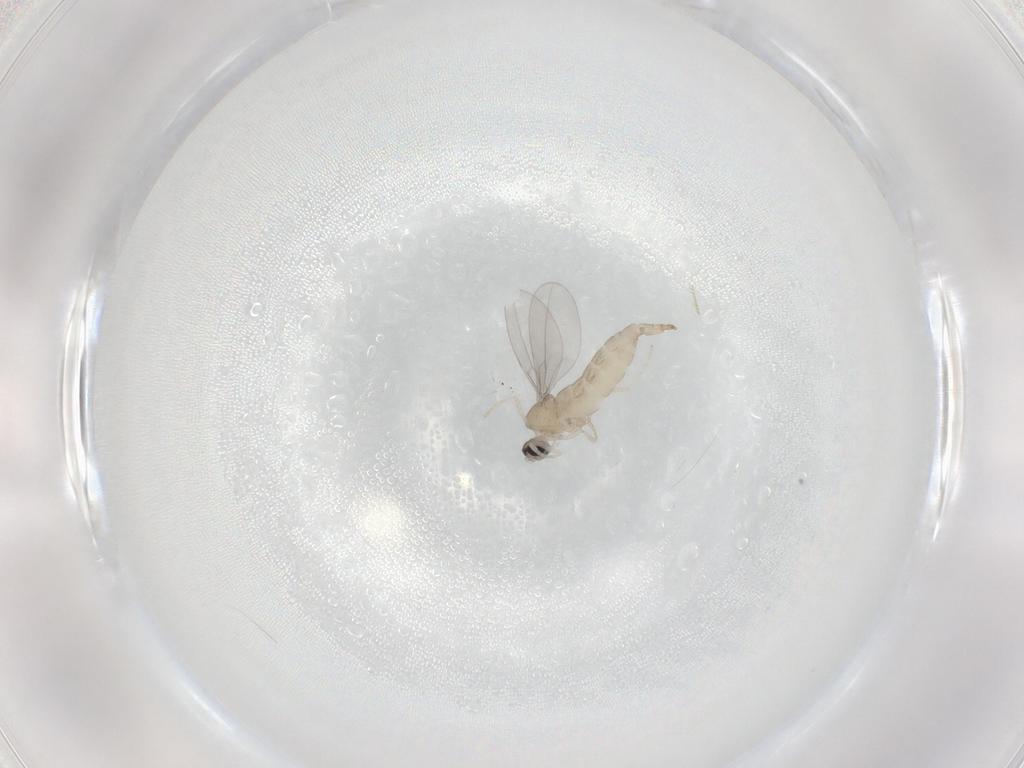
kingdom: Animalia
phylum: Arthropoda
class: Insecta
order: Diptera
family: Cecidomyiidae
